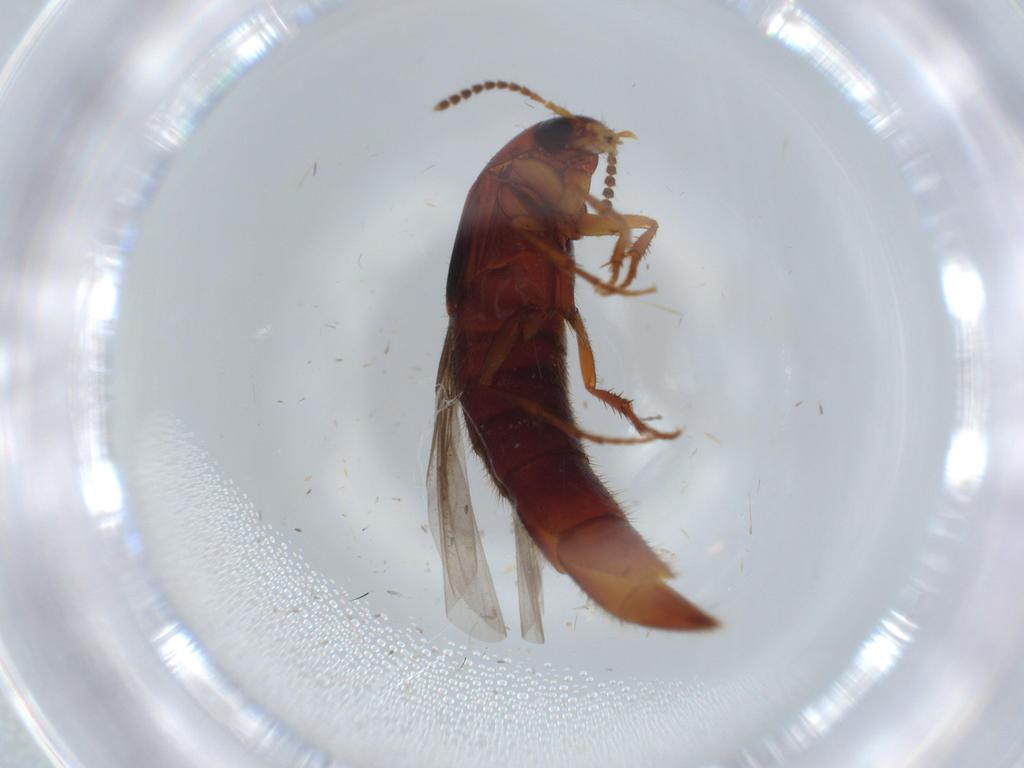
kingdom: Animalia
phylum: Arthropoda
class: Insecta
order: Coleoptera
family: Staphylinidae
